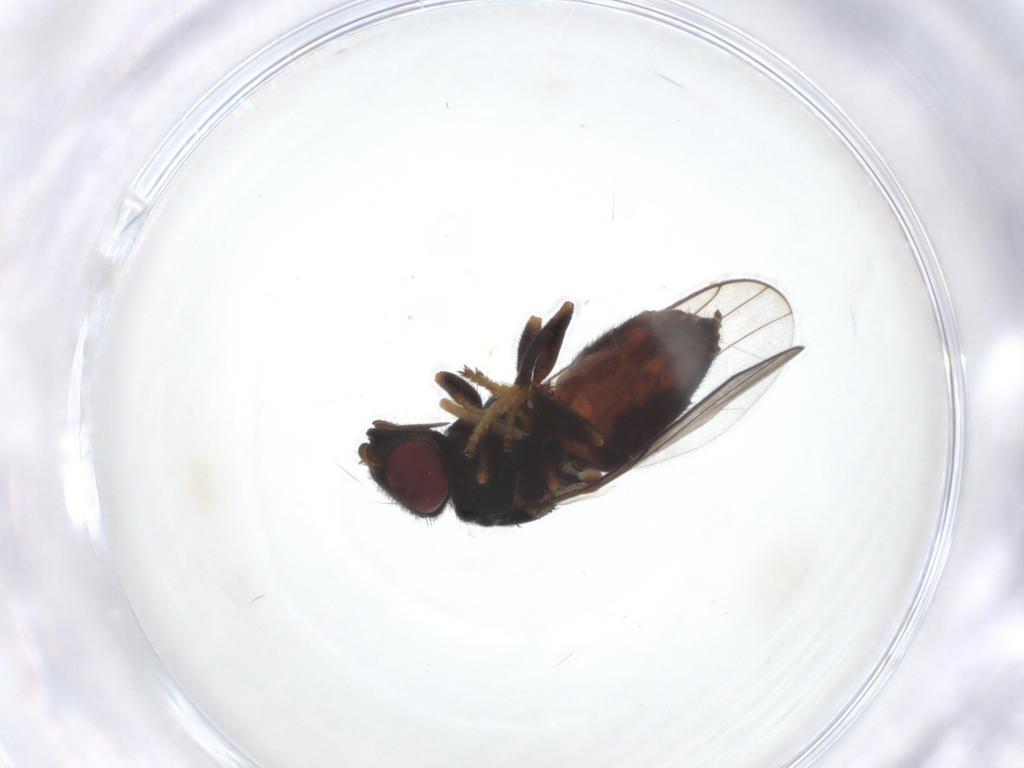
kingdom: Animalia
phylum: Arthropoda
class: Insecta
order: Diptera
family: Chloropidae
